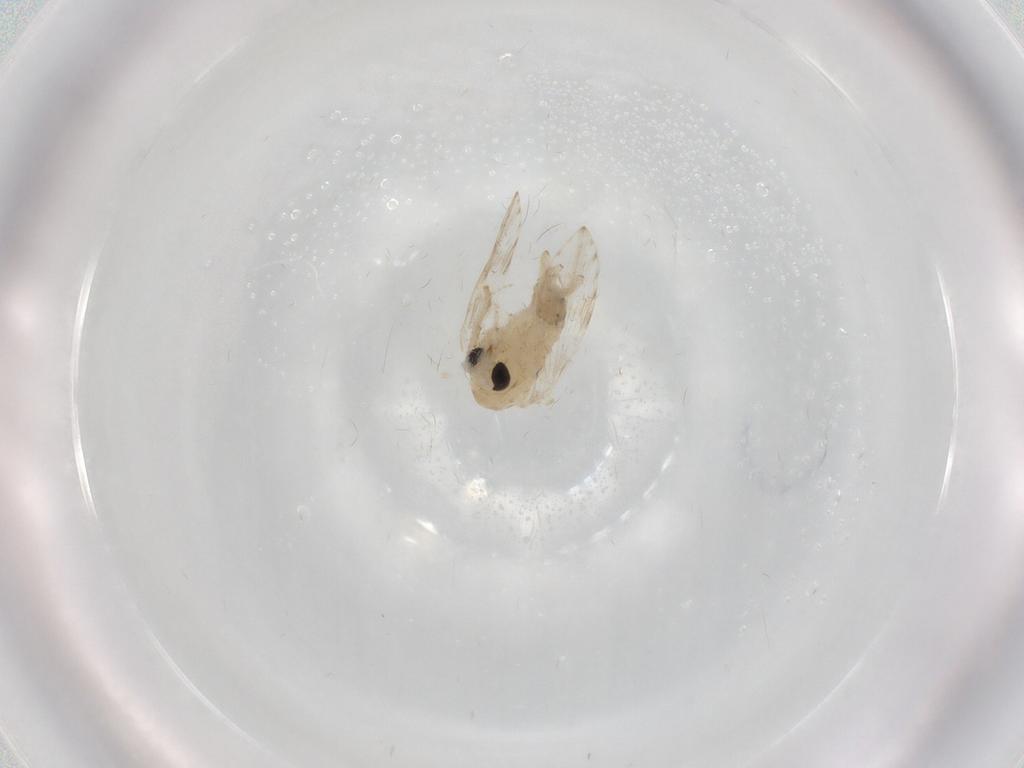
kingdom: Animalia
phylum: Arthropoda
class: Insecta
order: Diptera
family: Psychodidae
